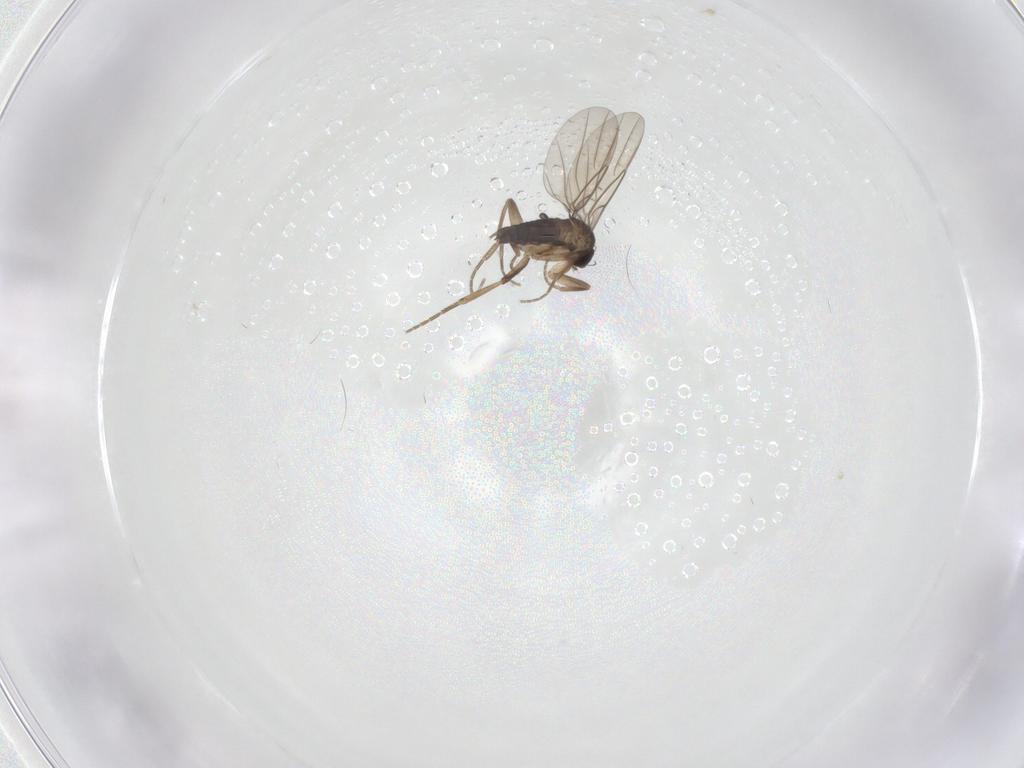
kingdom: Animalia
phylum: Arthropoda
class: Insecta
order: Diptera
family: Phoridae
